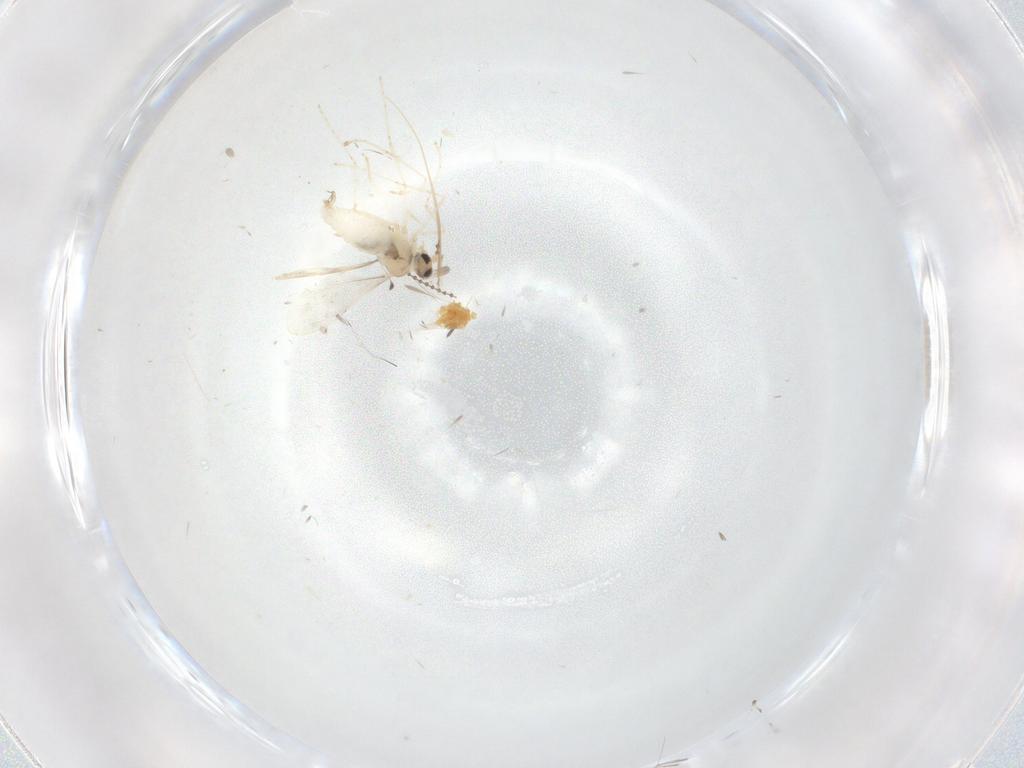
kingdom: Animalia
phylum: Arthropoda
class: Insecta
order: Diptera
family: Cecidomyiidae
